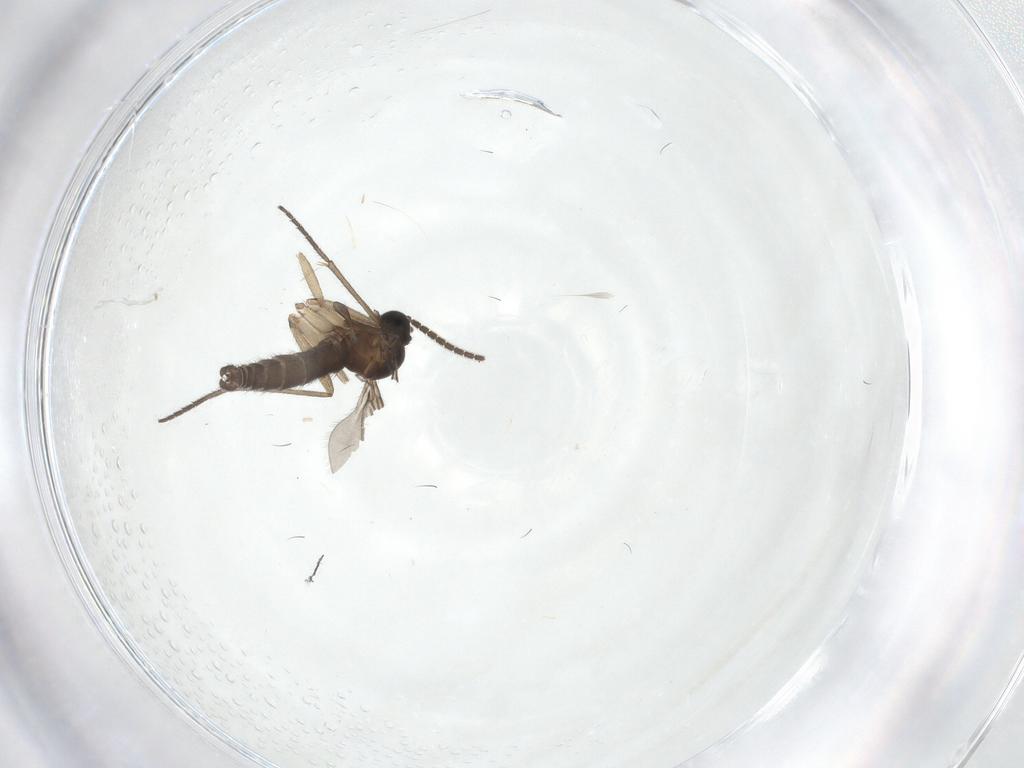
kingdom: Animalia
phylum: Arthropoda
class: Insecta
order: Diptera
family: Sciaridae
